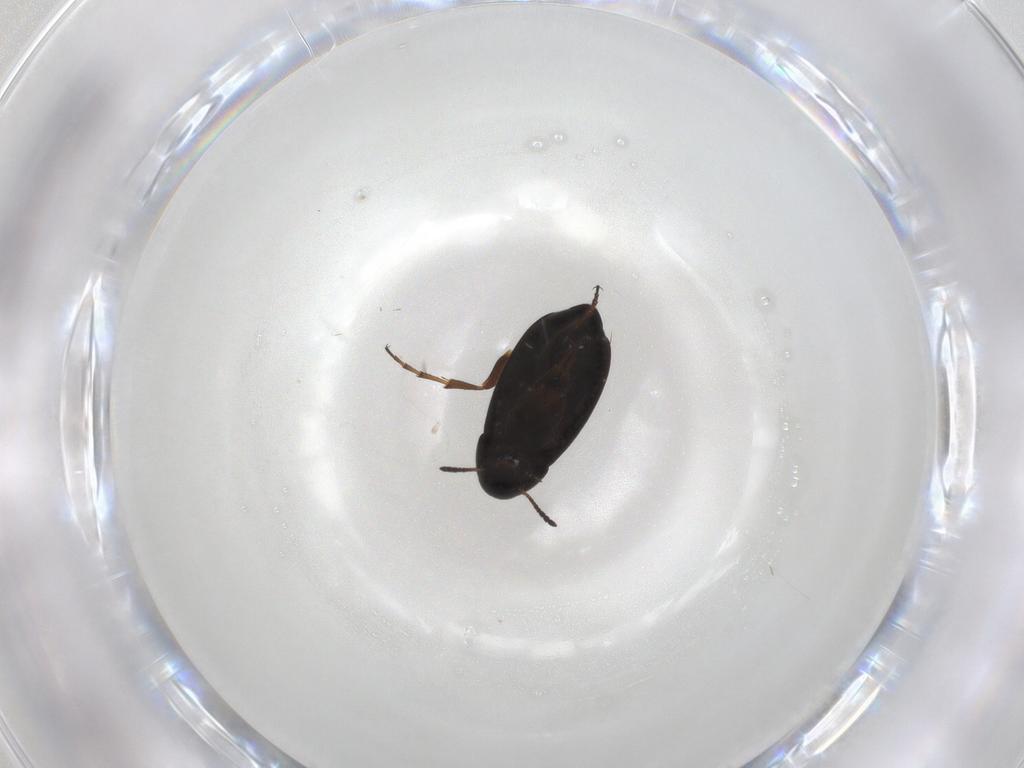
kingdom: Animalia
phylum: Arthropoda
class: Insecta
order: Coleoptera
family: Scraptiidae
